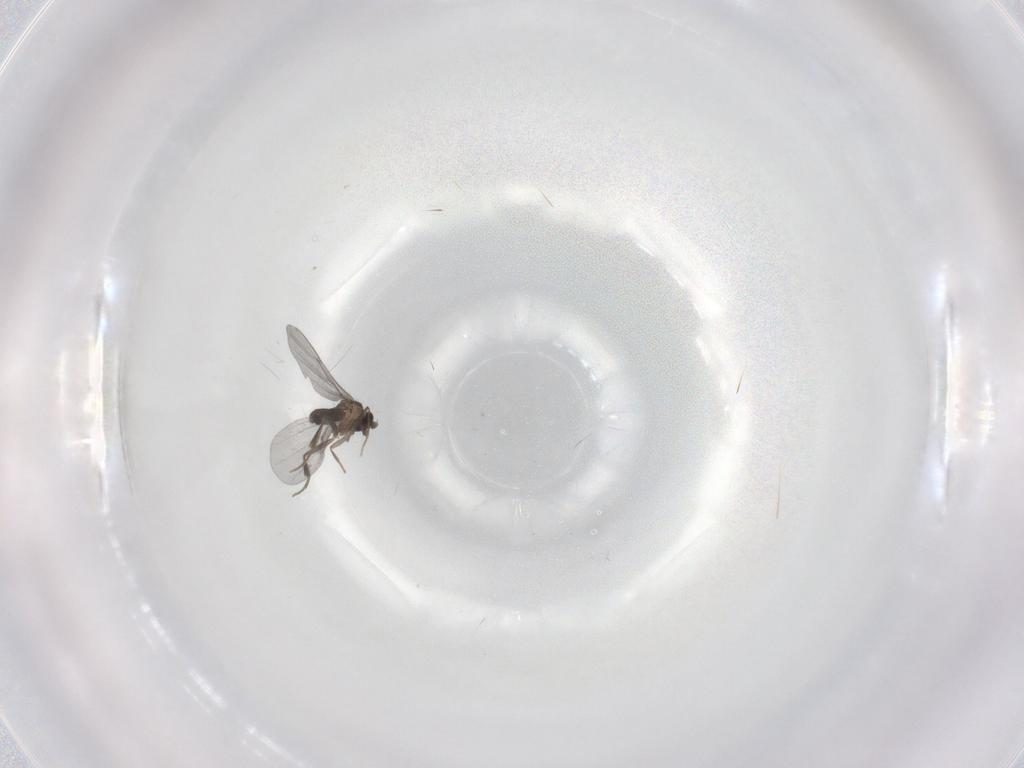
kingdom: Animalia
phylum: Arthropoda
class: Insecta
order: Diptera
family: Phoridae
